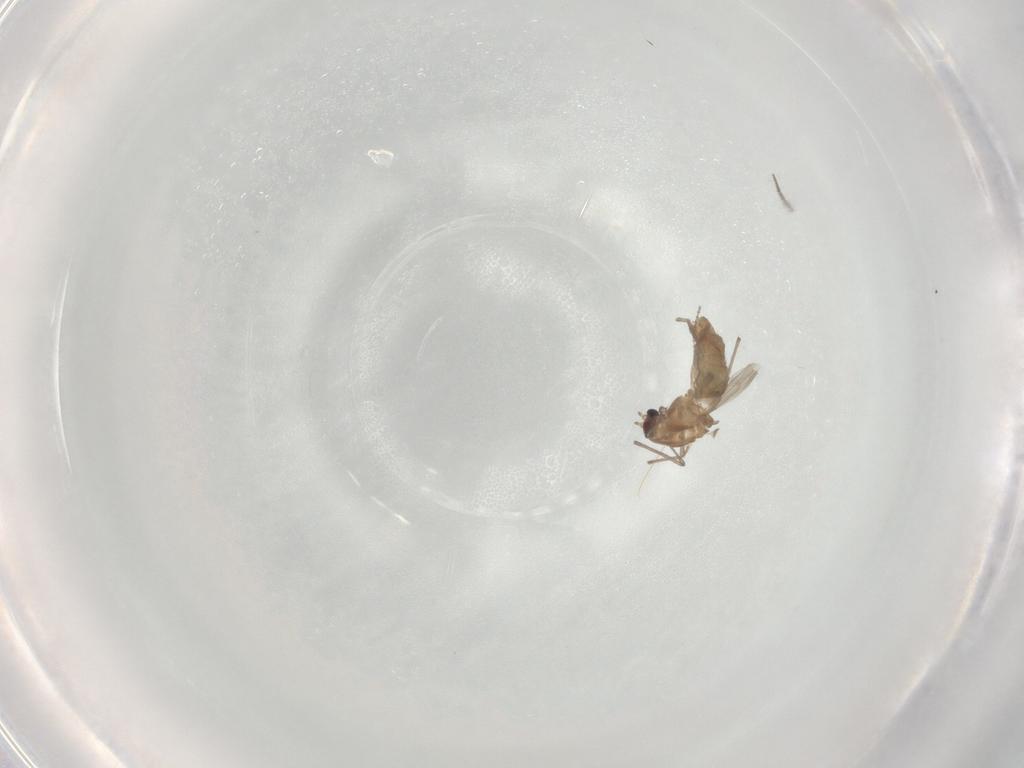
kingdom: Animalia
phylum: Arthropoda
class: Insecta
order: Diptera
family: Chironomidae
